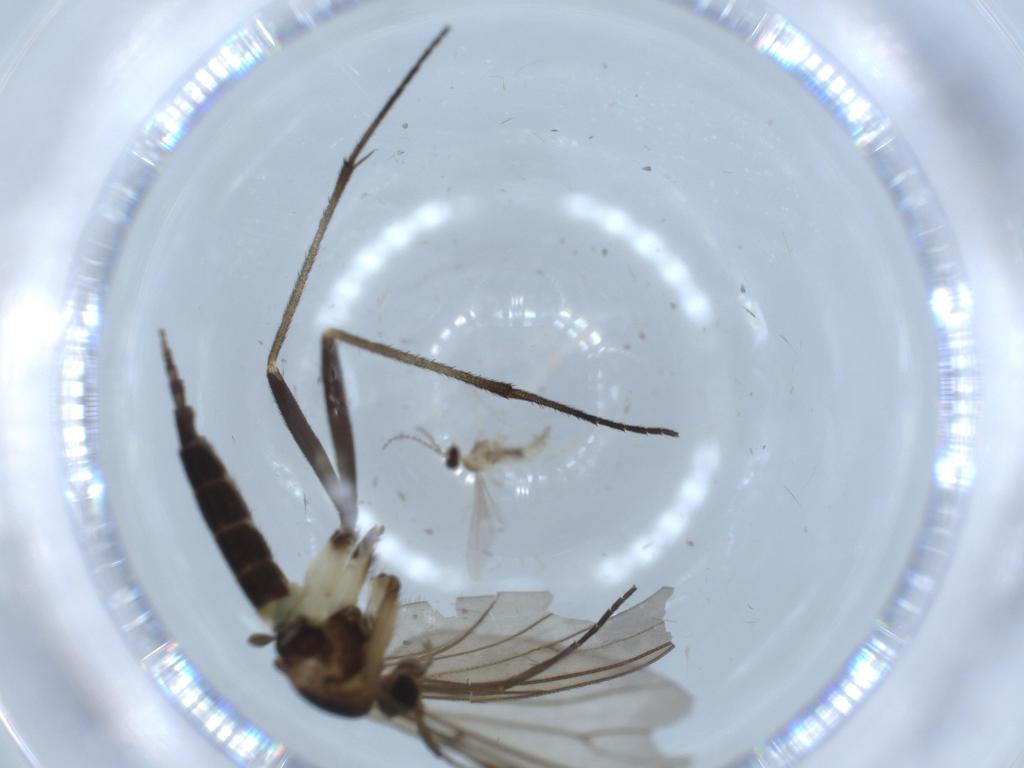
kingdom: Animalia
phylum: Arthropoda
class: Insecta
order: Diptera
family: Sciaridae
